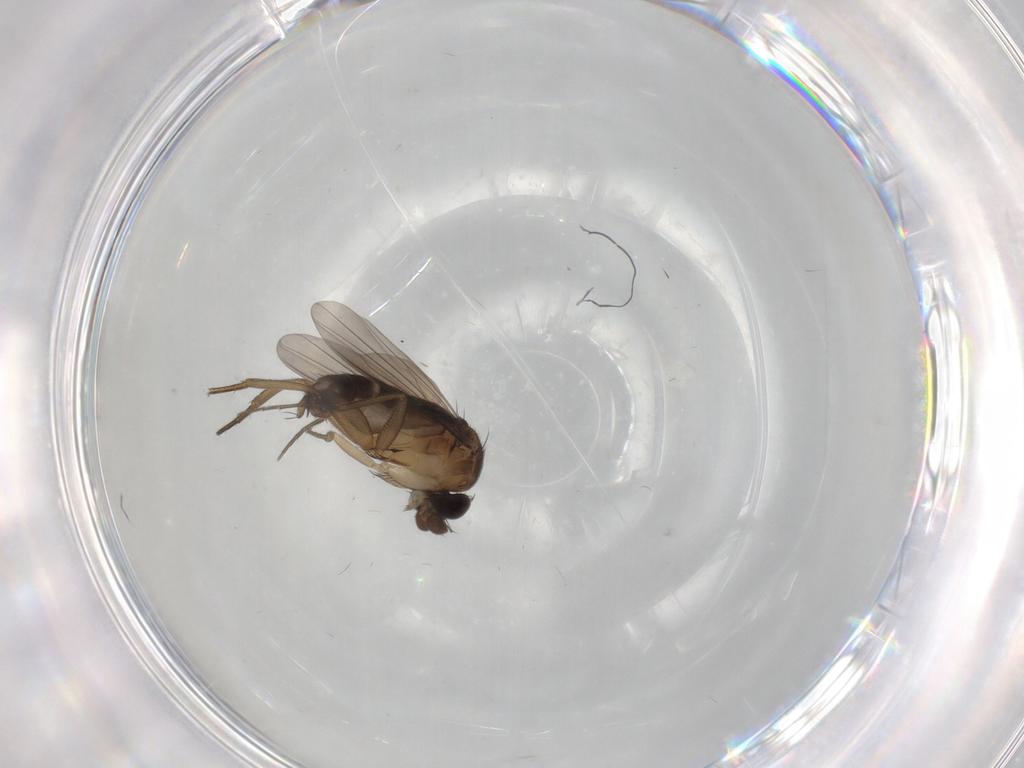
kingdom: Animalia
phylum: Arthropoda
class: Insecta
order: Diptera
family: Phoridae
